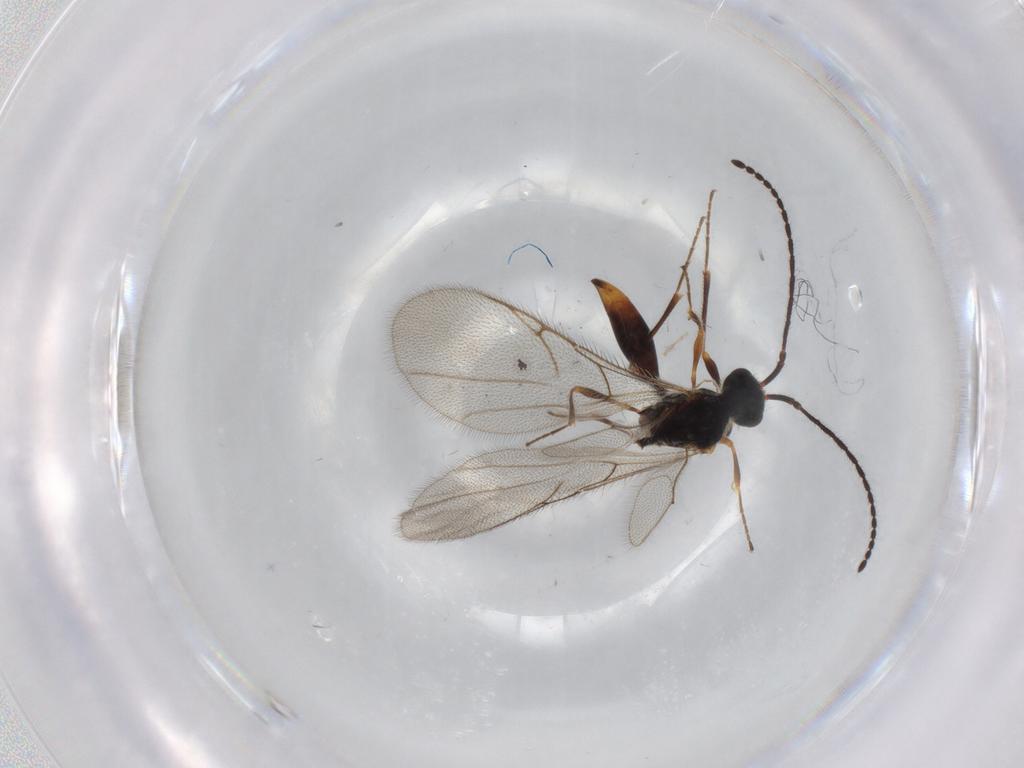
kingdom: Animalia
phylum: Arthropoda
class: Insecta
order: Hymenoptera
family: Diapriidae
